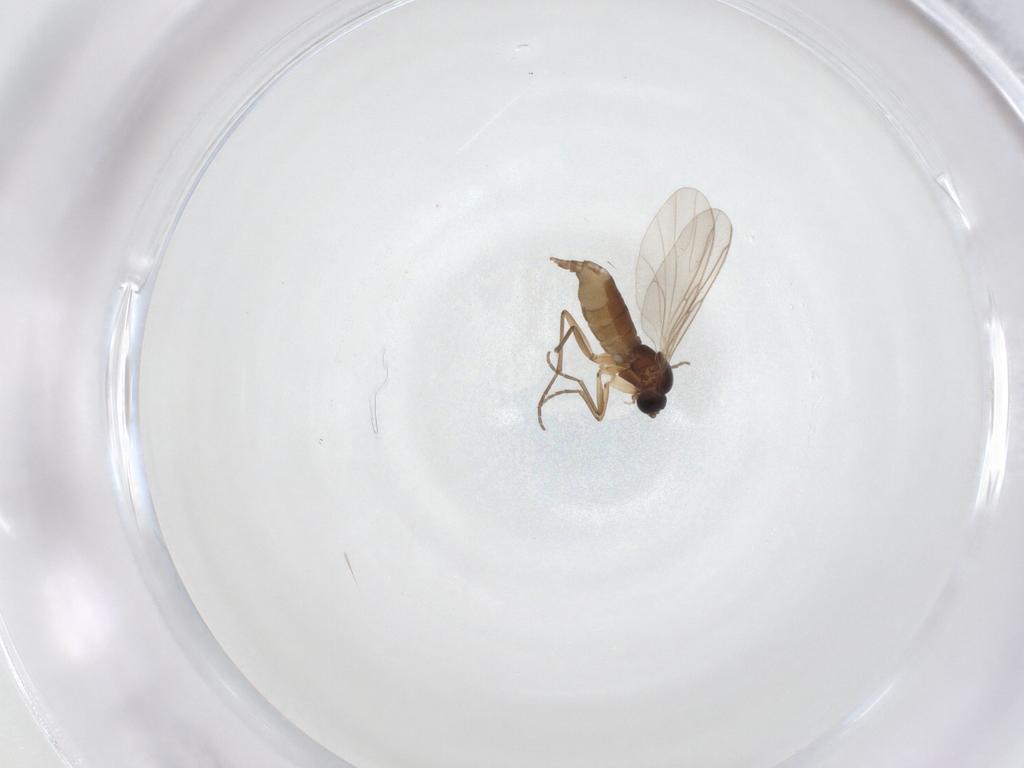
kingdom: Animalia
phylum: Arthropoda
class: Insecta
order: Diptera
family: Sciaridae
